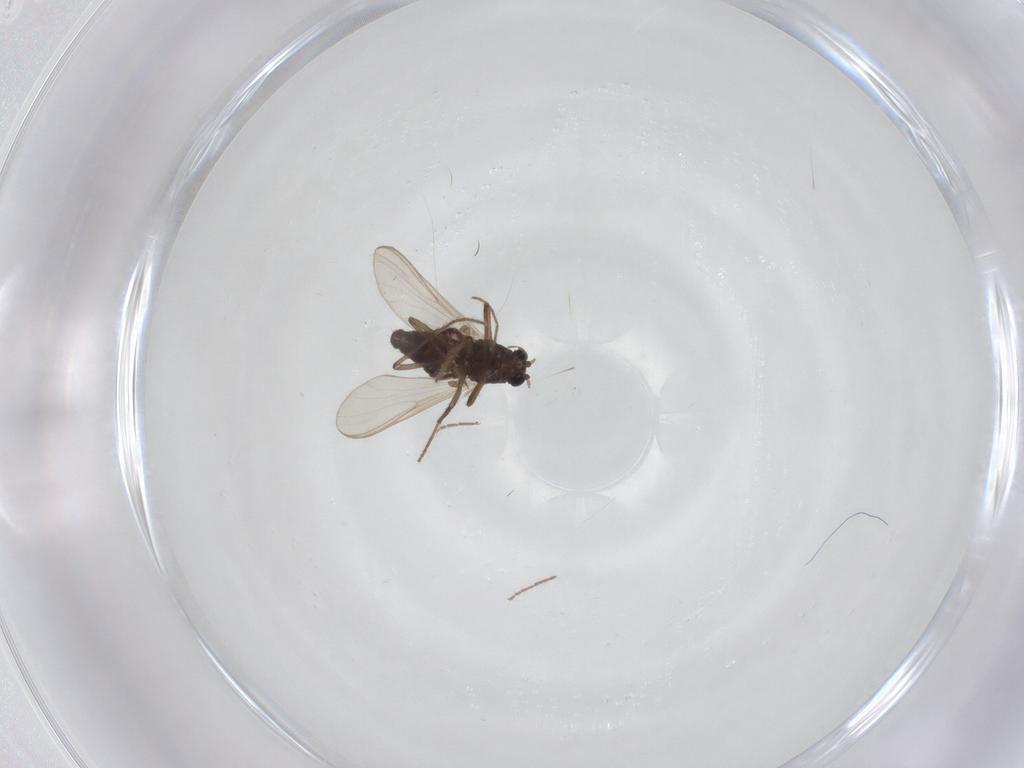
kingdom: Animalia
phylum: Arthropoda
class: Insecta
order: Diptera
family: Chironomidae
